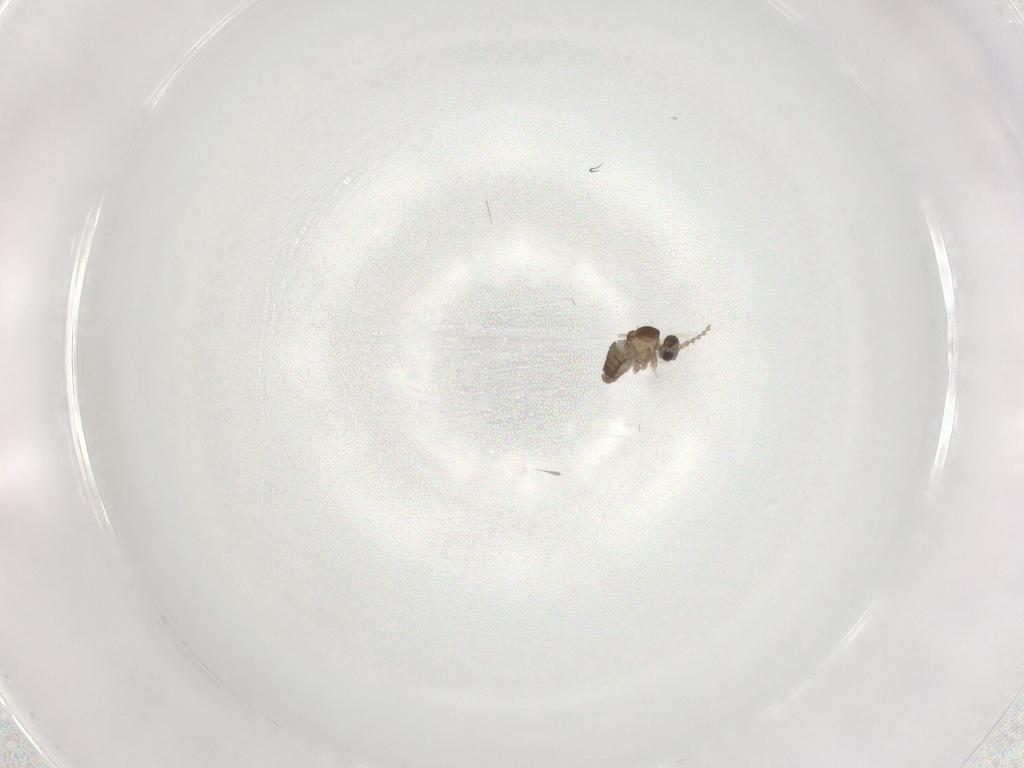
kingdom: Animalia
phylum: Arthropoda
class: Insecta
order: Diptera
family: Cecidomyiidae
